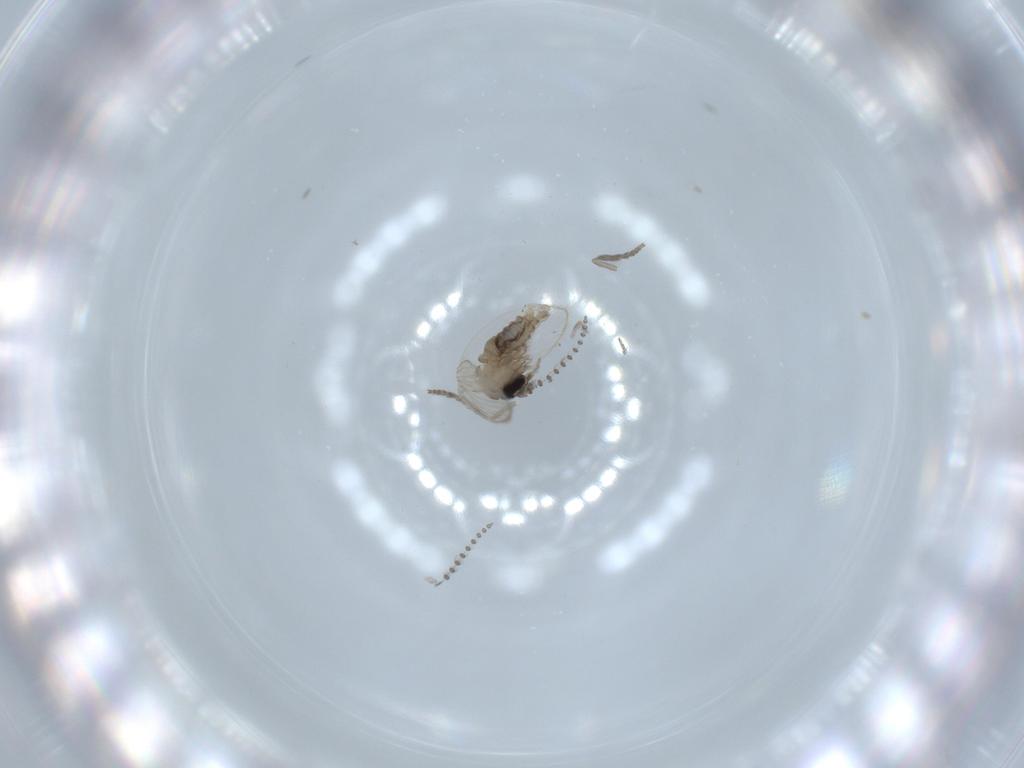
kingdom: Animalia
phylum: Arthropoda
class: Insecta
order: Diptera
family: Psychodidae
